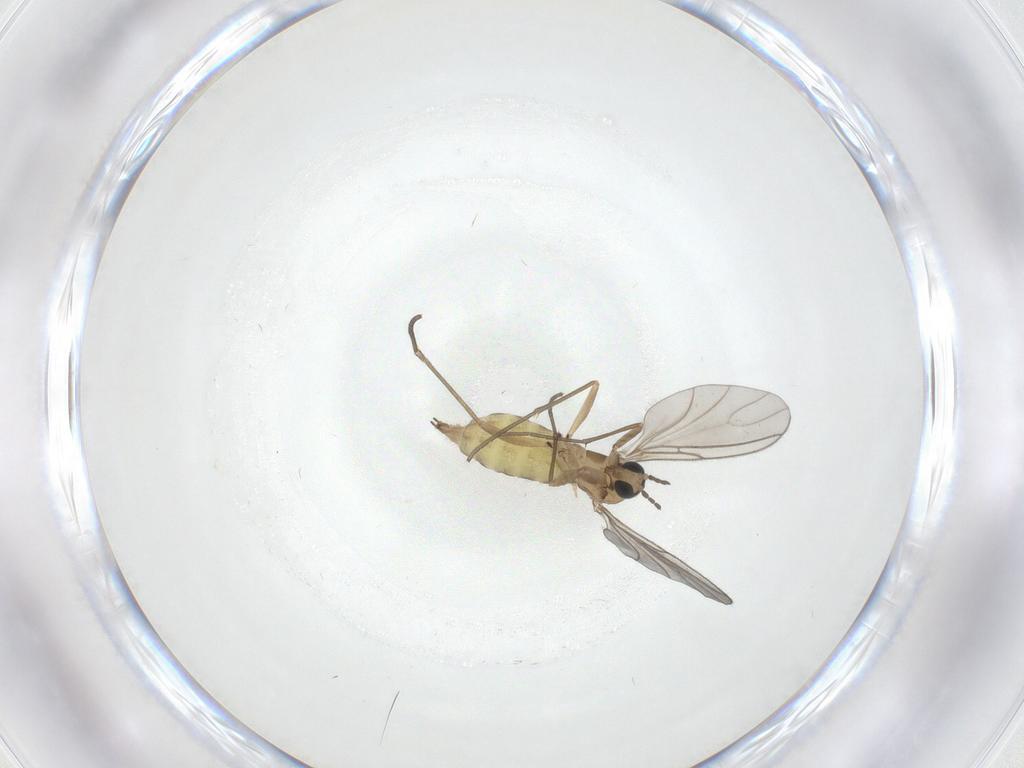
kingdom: Animalia
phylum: Arthropoda
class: Insecta
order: Diptera
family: Sciaridae
